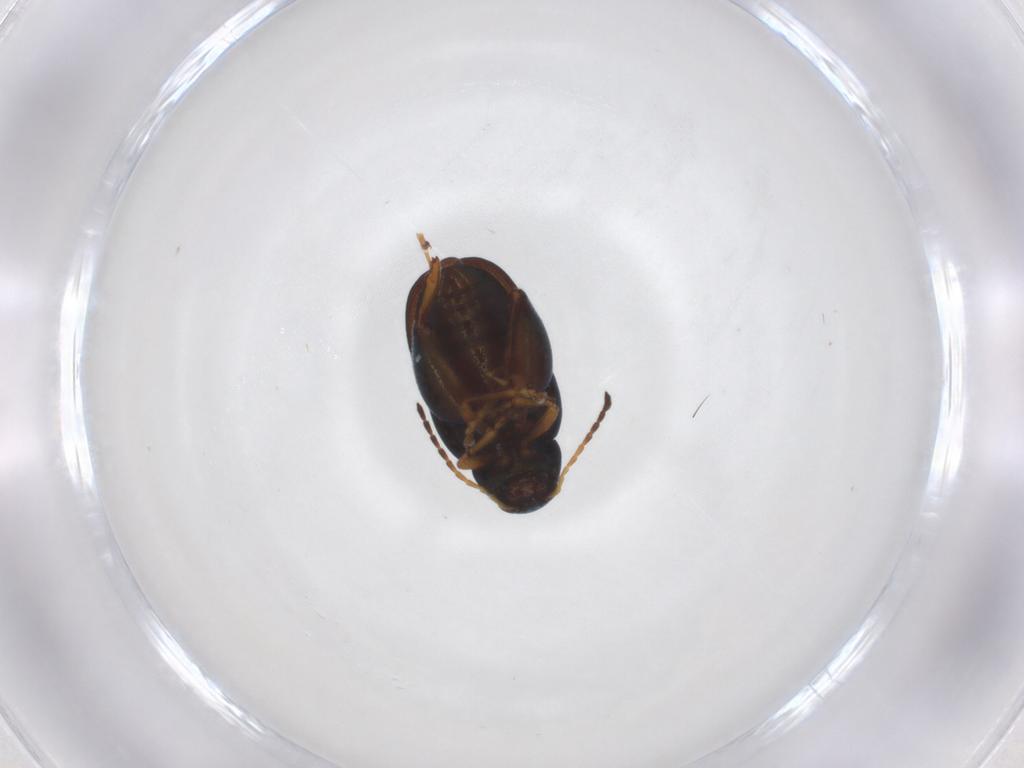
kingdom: Animalia
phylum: Arthropoda
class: Insecta
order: Coleoptera
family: Chrysomelidae
